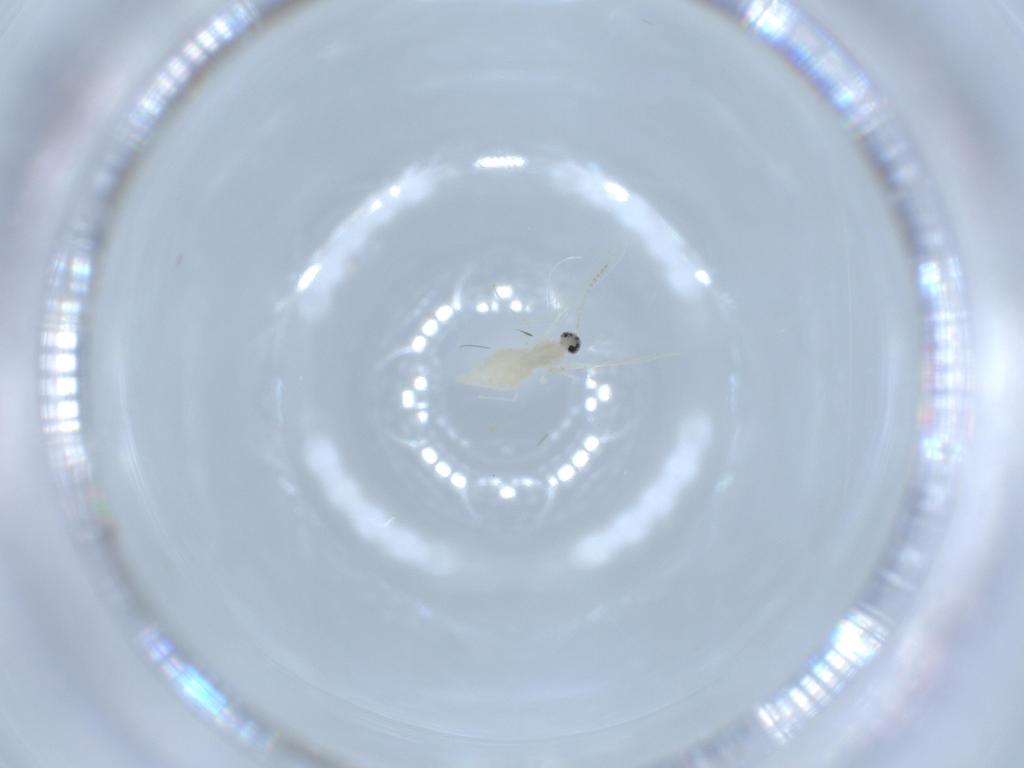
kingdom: Animalia
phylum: Arthropoda
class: Insecta
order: Diptera
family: Cecidomyiidae
